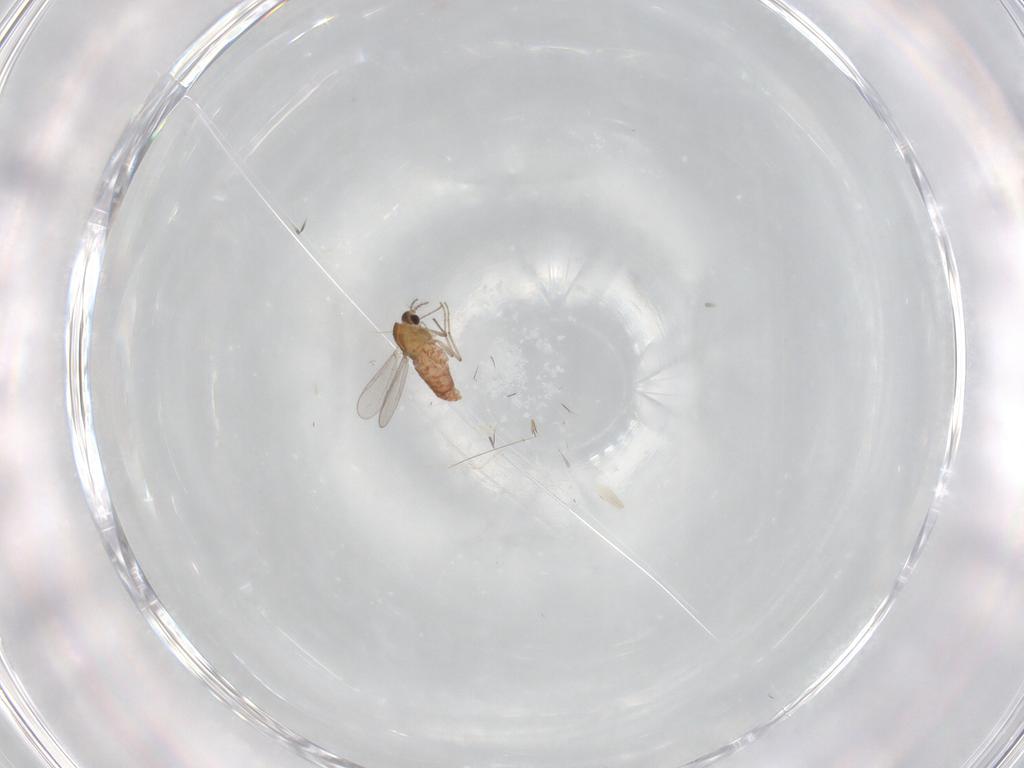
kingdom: Animalia
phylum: Arthropoda
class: Insecta
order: Diptera
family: Chironomidae
